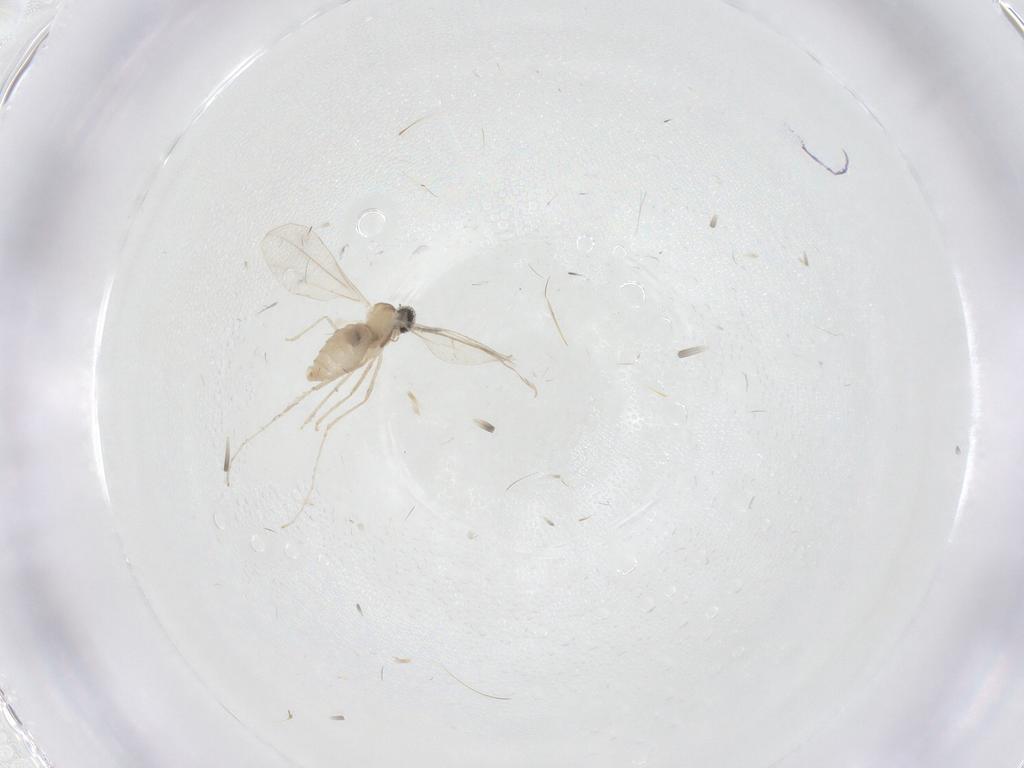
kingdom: Animalia
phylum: Arthropoda
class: Insecta
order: Diptera
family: Cecidomyiidae
